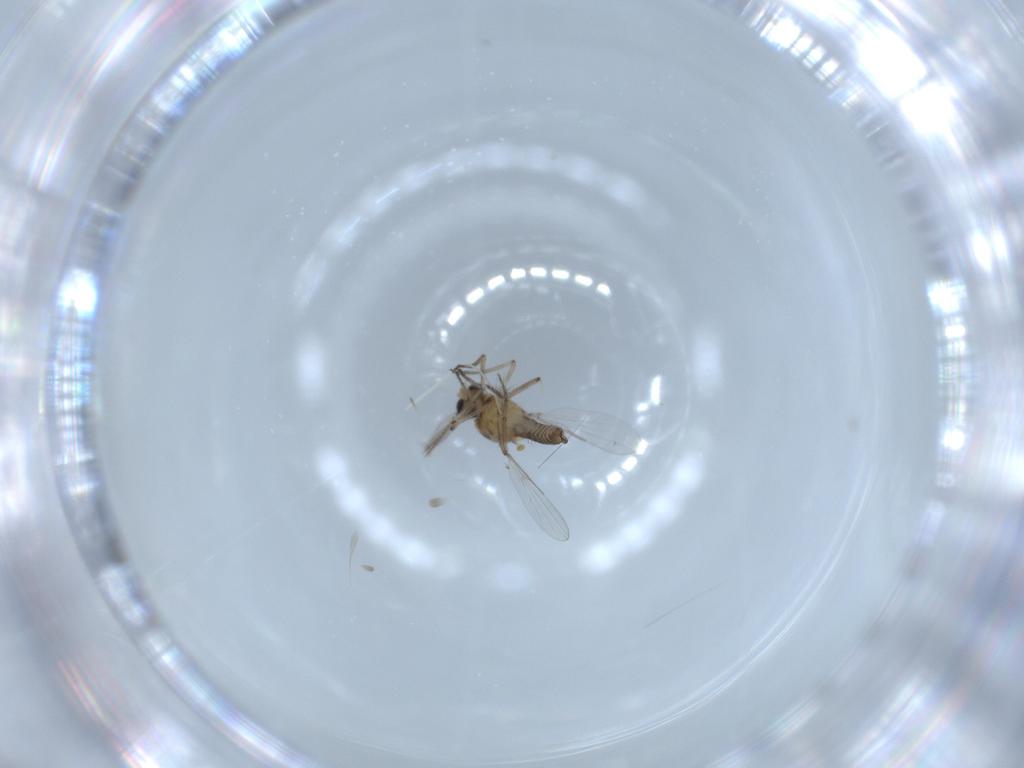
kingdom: Animalia
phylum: Arthropoda
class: Insecta
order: Diptera
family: Ceratopogonidae
